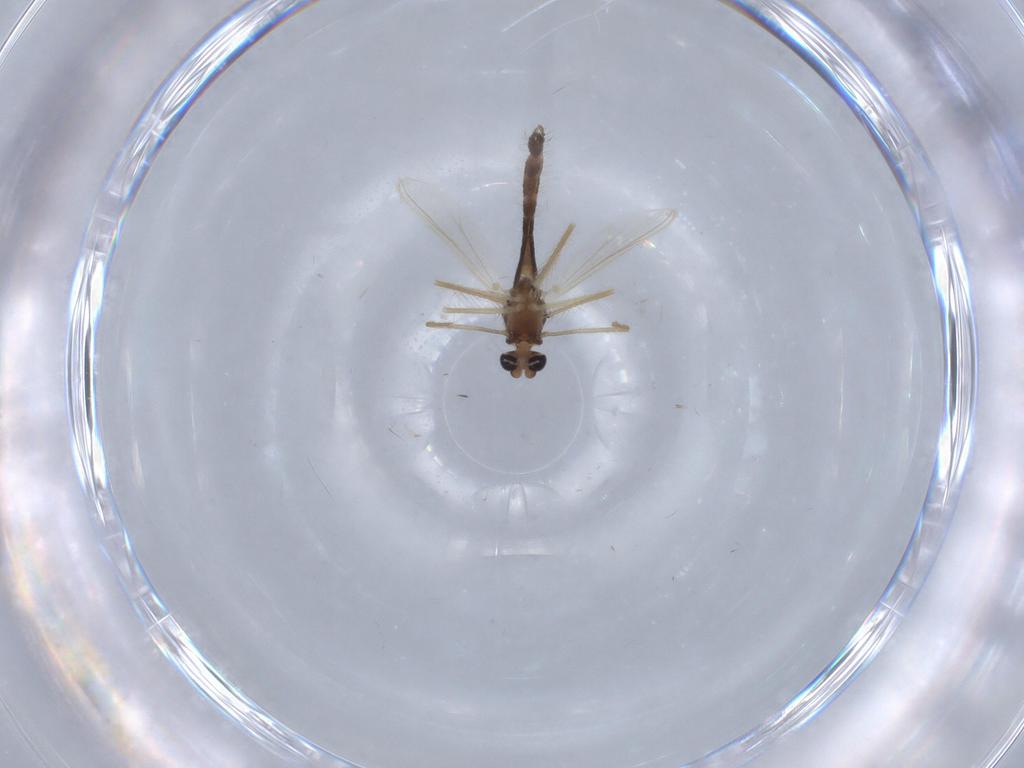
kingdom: Animalia
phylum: Arthropoda
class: Insecta
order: Diptera
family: Chironomidae
